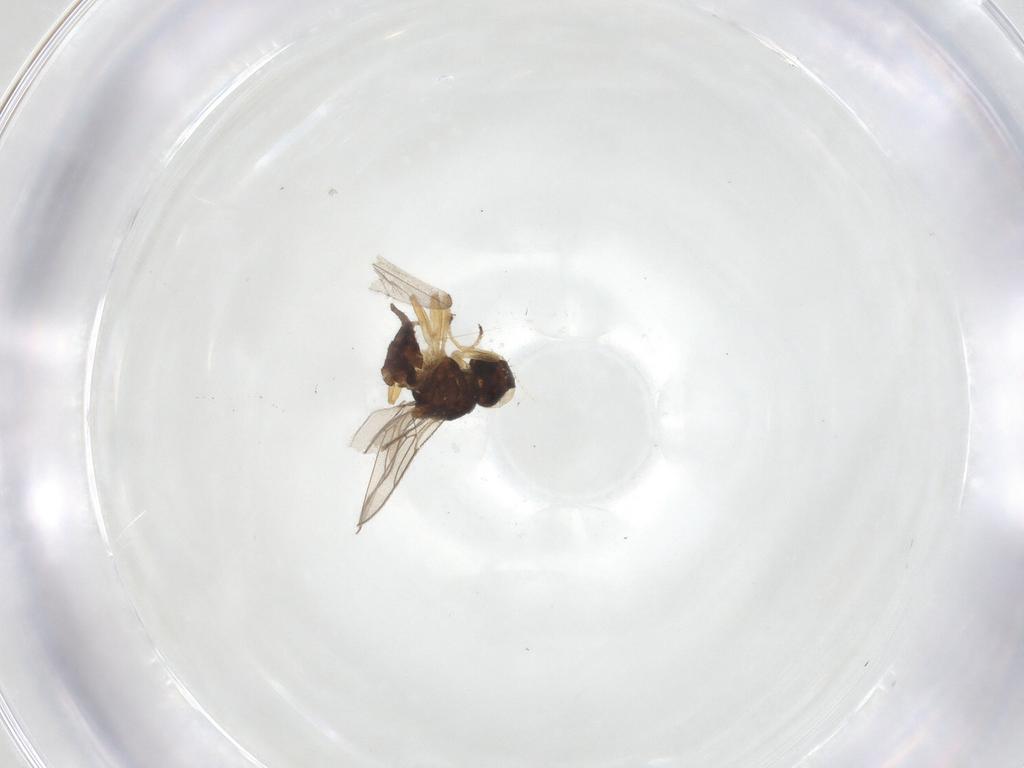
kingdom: Animalia
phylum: Arthropoda
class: Insecta
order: Diptera
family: Chloropidae
